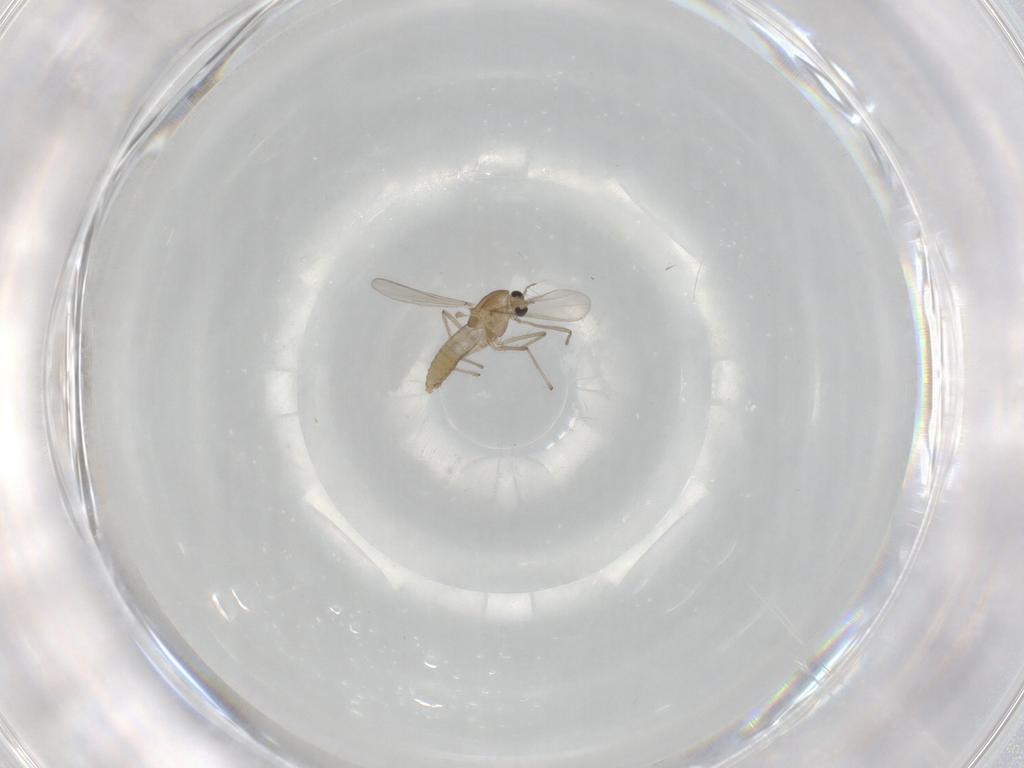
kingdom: Animalia
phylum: Arthropoda
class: Insecta
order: Diptera
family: Chironomidae
